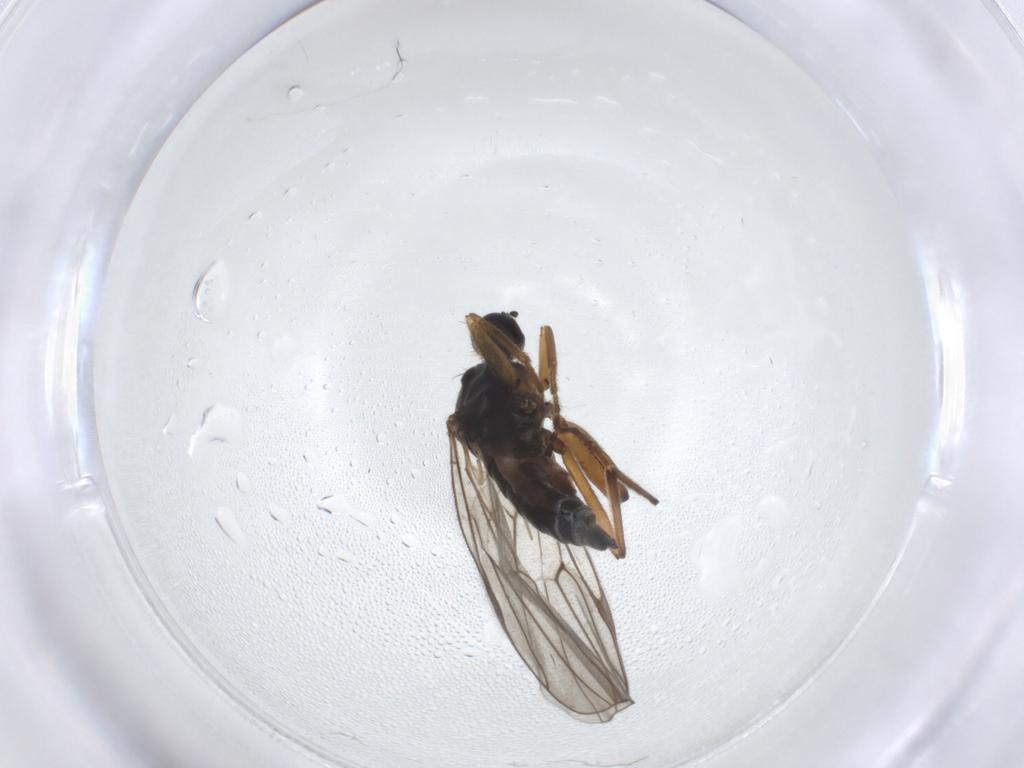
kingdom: Animalia
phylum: Arthropoda
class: Insecta
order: Diptera
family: Hybotidae
